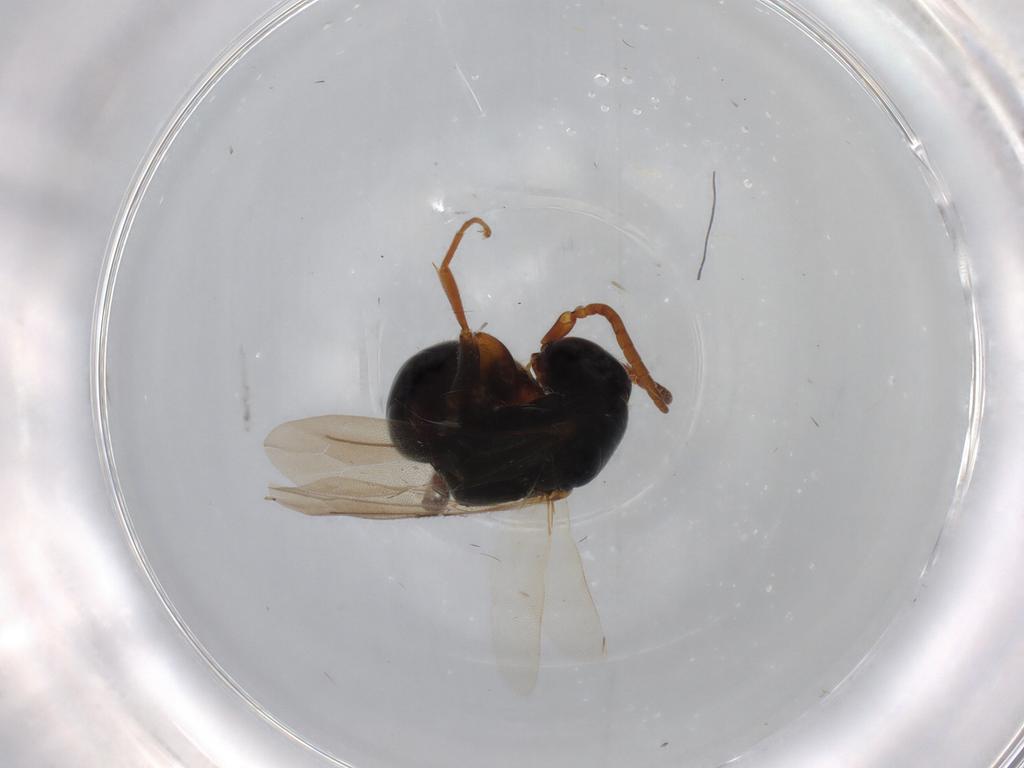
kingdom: Animalia
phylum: Arthropoda
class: Insecta
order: Hymenoptera
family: Bethylidae
